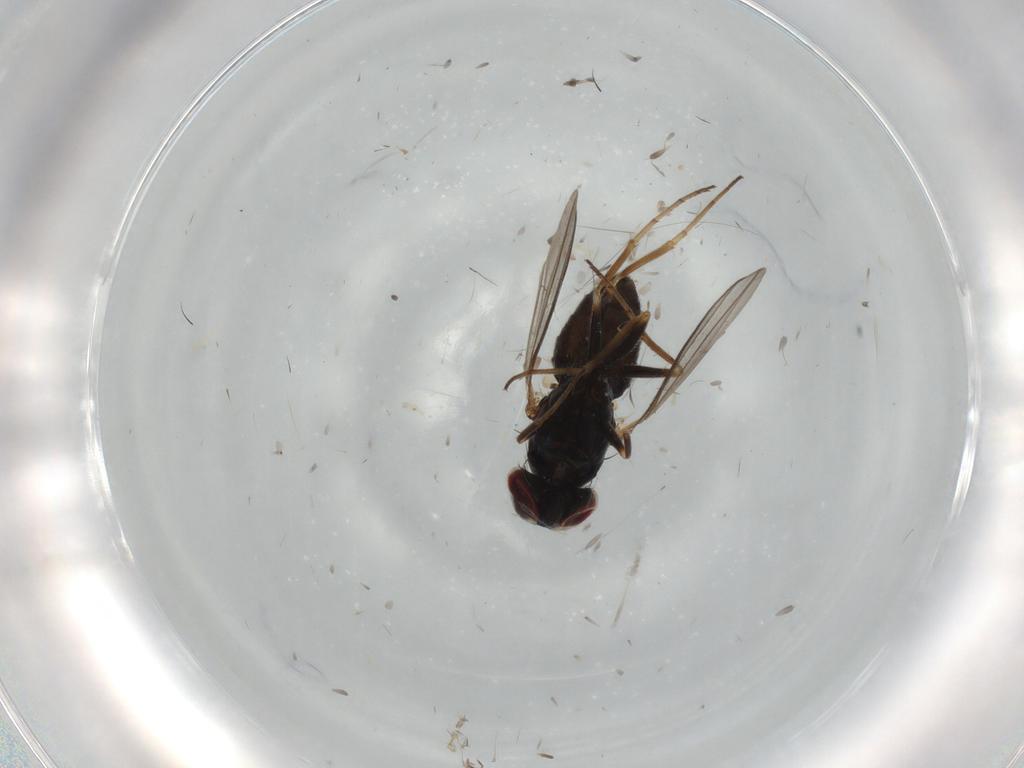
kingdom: Animalia
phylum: Arthropoda
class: Insecta
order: Diptera
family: Dolichopodidae
